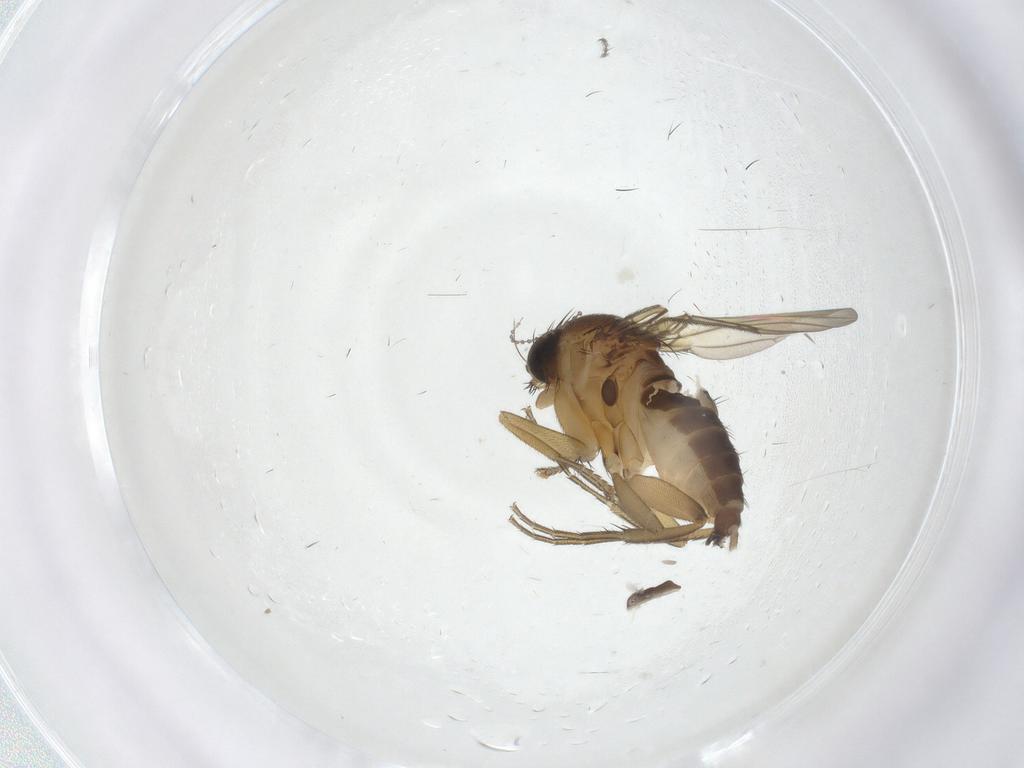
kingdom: Animalia
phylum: Arthropoda
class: Insecta
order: Diptera
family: Phoridae
